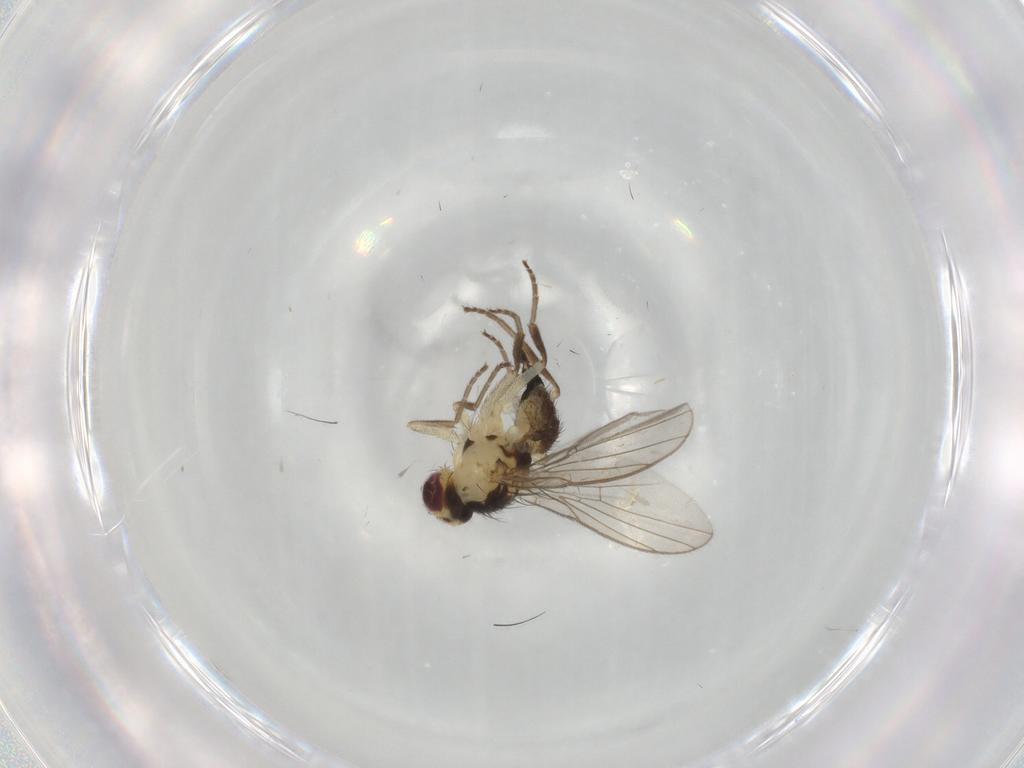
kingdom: Animalia
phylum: Arthropoda
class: Insecta
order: Diptera
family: Agromyzidae
